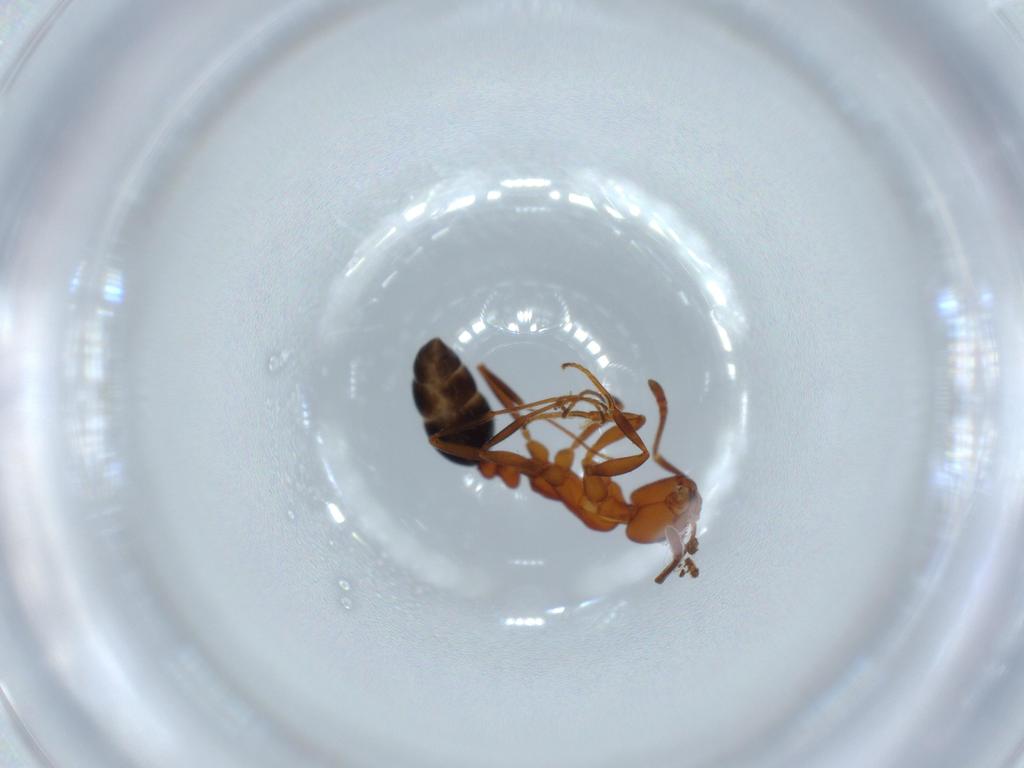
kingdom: Animalia
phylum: Arthropoda
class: Insecta
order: Hymenoptera
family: Formicidae
